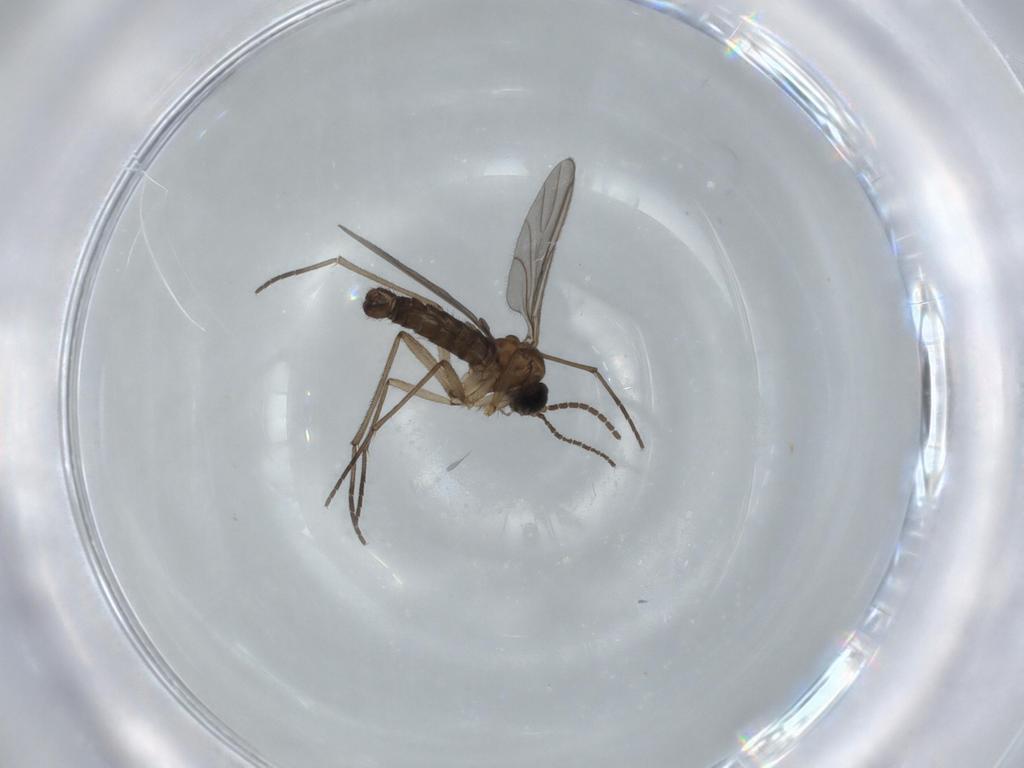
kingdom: Animalia
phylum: Arthropoda
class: Insecta
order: Diptera
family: Sciaridae
